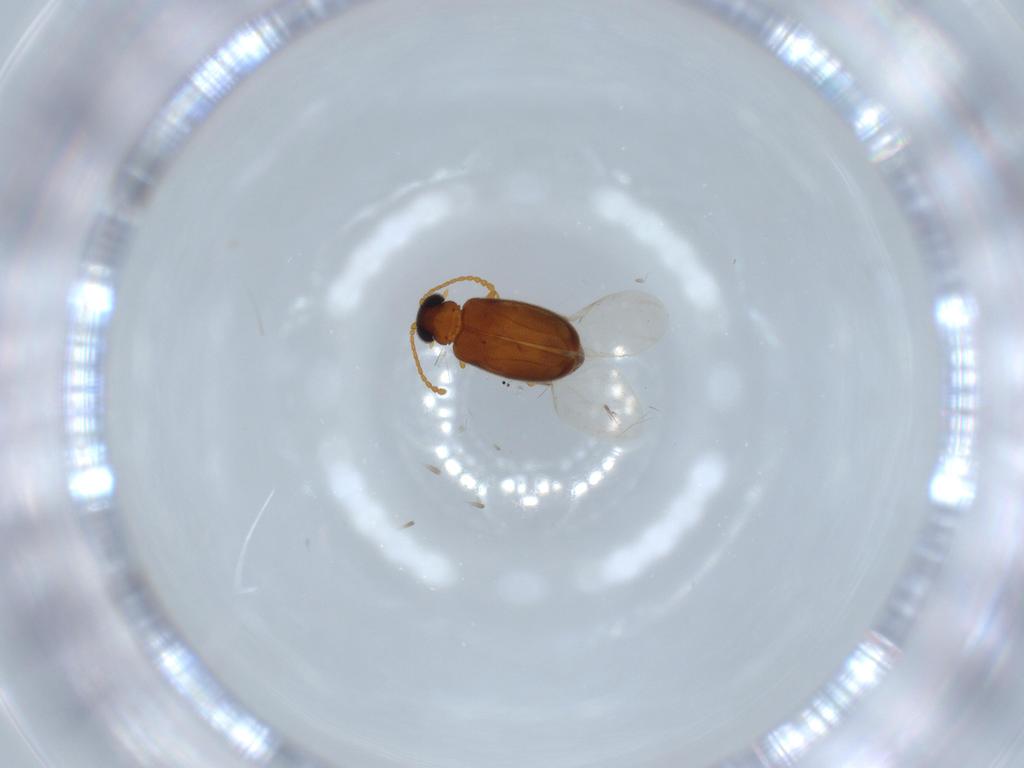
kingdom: Animalia
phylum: Arthropoda
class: Insecta
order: Coleoptera
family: Aderidae
